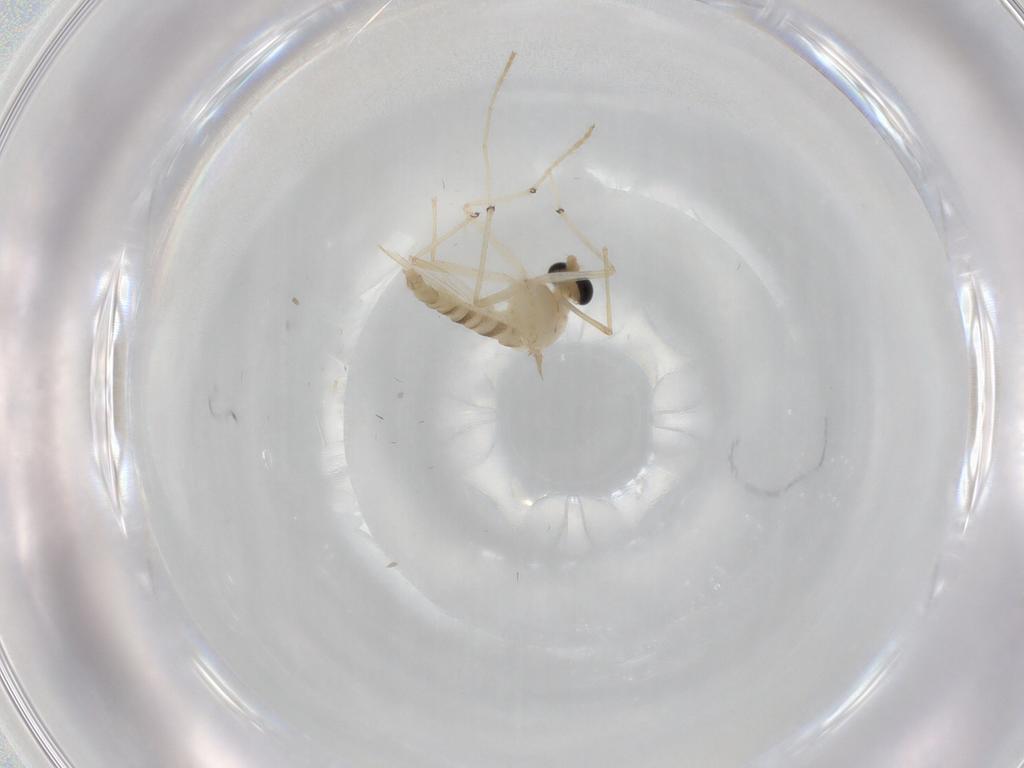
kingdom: Animalia
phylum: Arthropoda
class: Insecta
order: Diptera
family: Chironomidae
